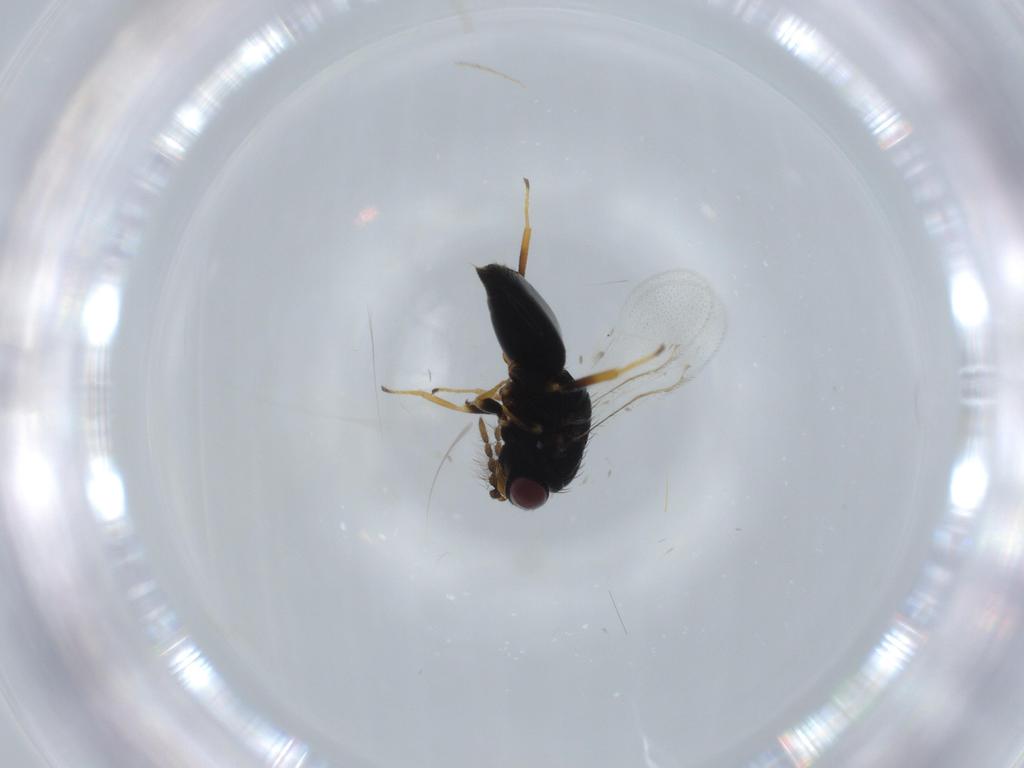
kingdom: Animalia
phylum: Arthropoda
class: Insecta
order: Hymenoptera
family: Pteromalidae
